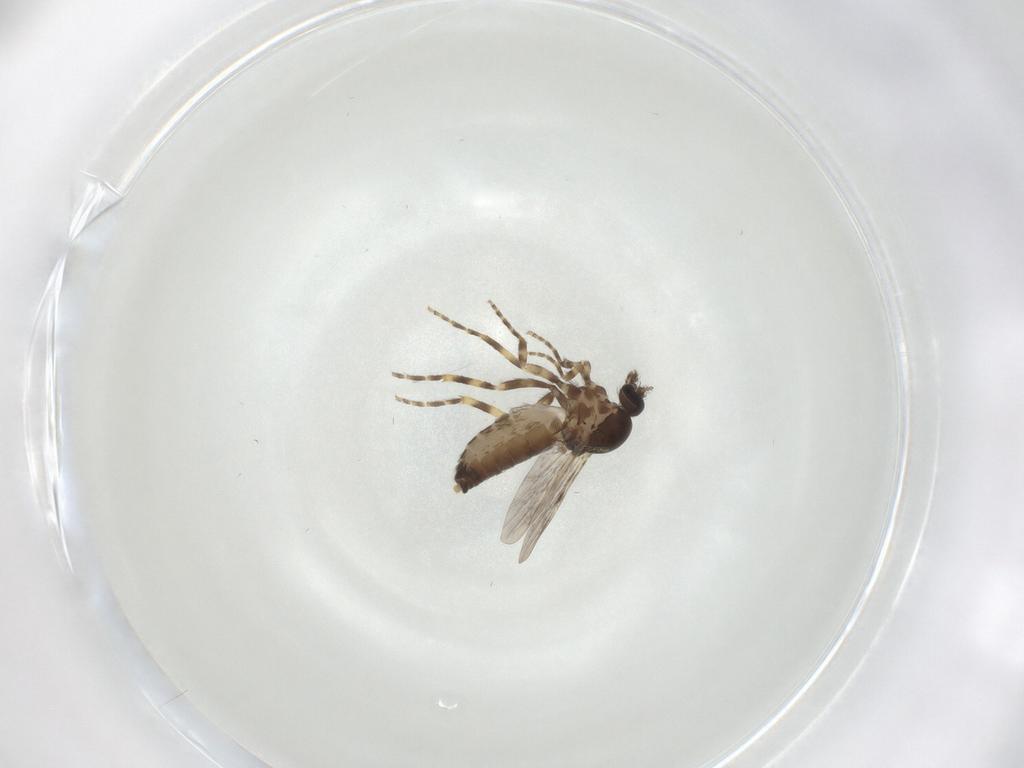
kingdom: Animalia
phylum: Arthropoda
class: Insecta
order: Diptera
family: Ceratopogonidae
